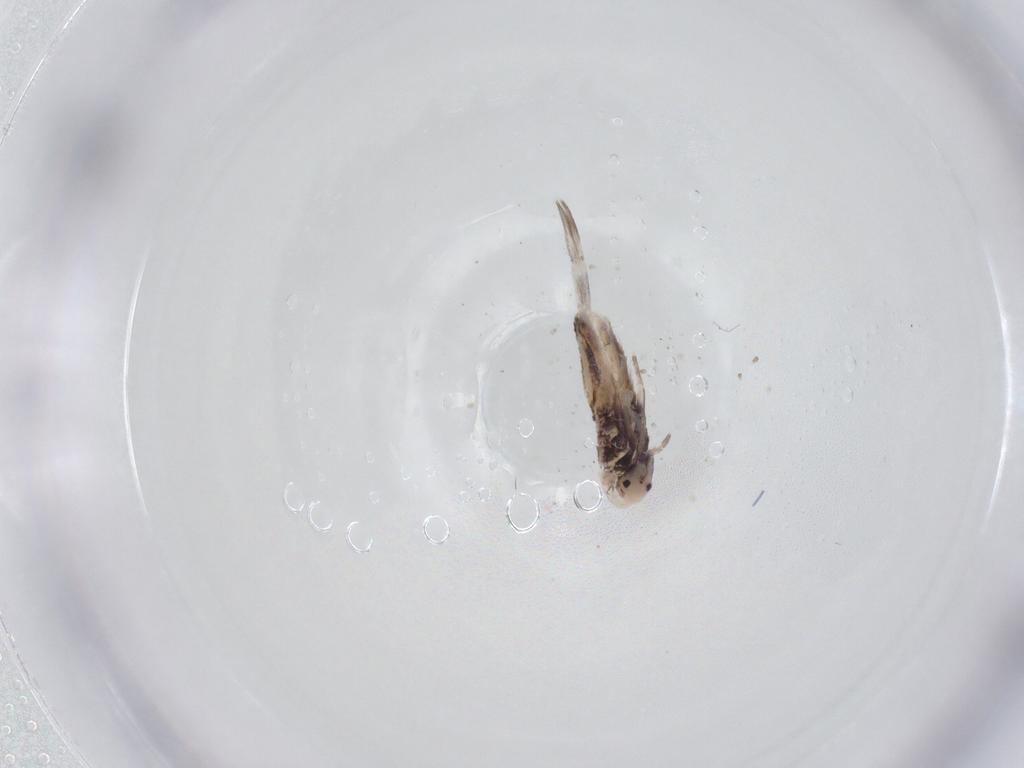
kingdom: Animalia
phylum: Arthropoda
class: Collembola
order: Entomobryomorpha
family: Entomobryidae
